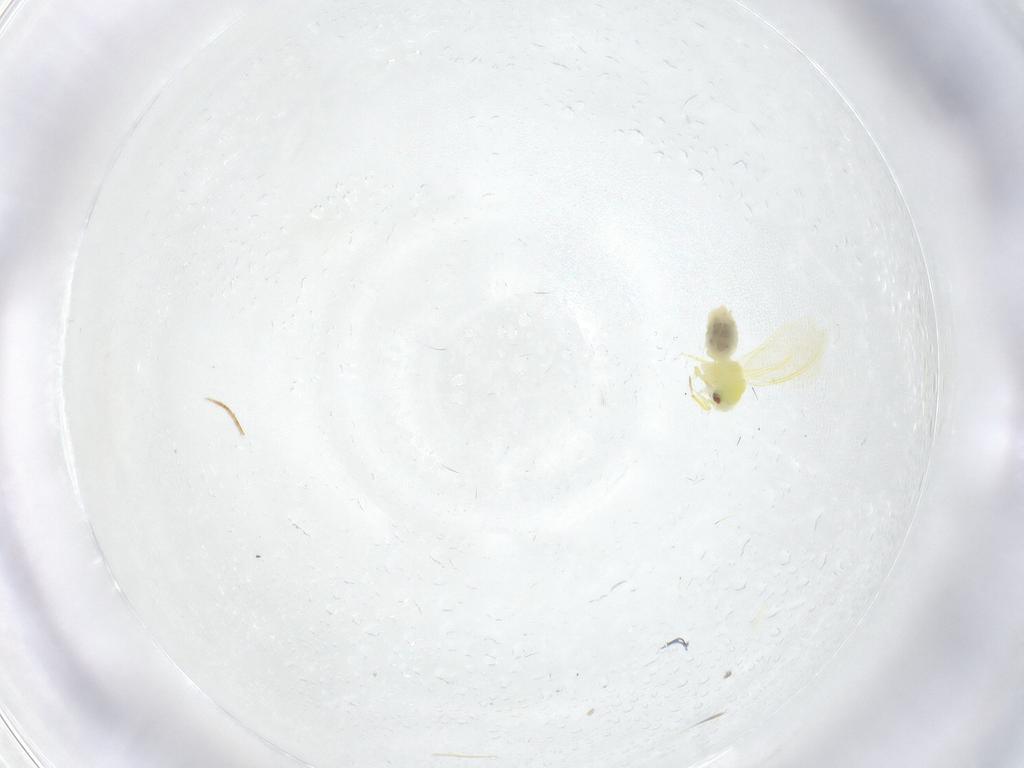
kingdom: Animalia
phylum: Arthropoda
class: Insecta
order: Hemiptera
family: Aleyrodidae
